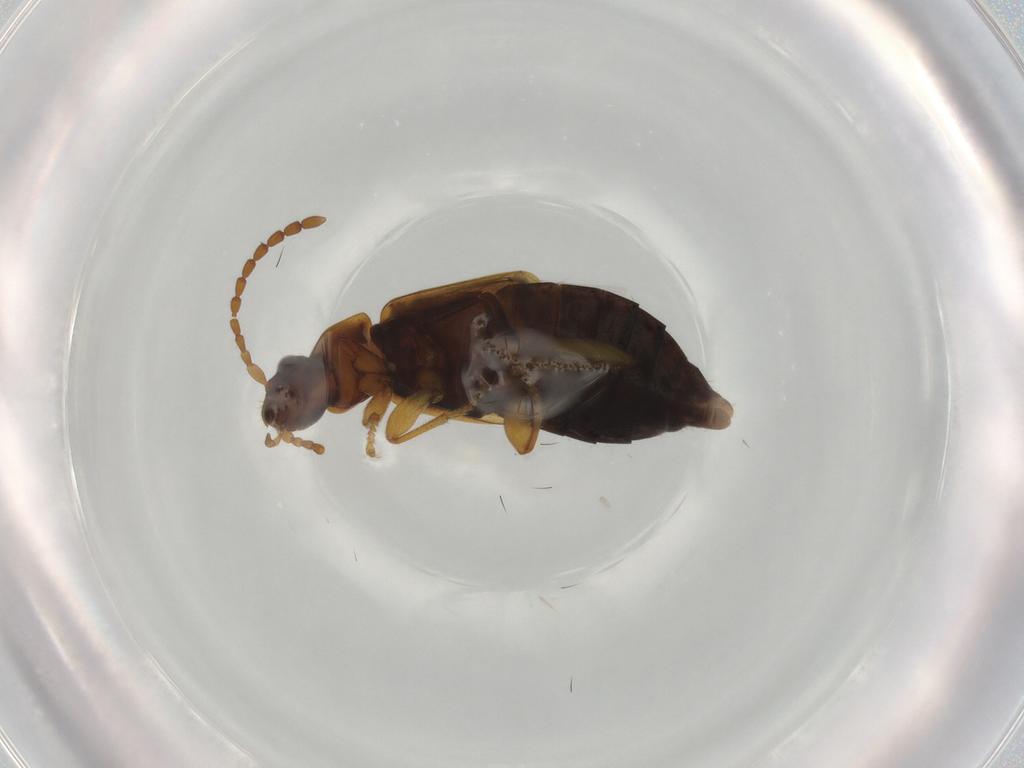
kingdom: Animalia
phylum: Arthropoda
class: Insecta
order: Coleoptera
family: Staphylinidae
